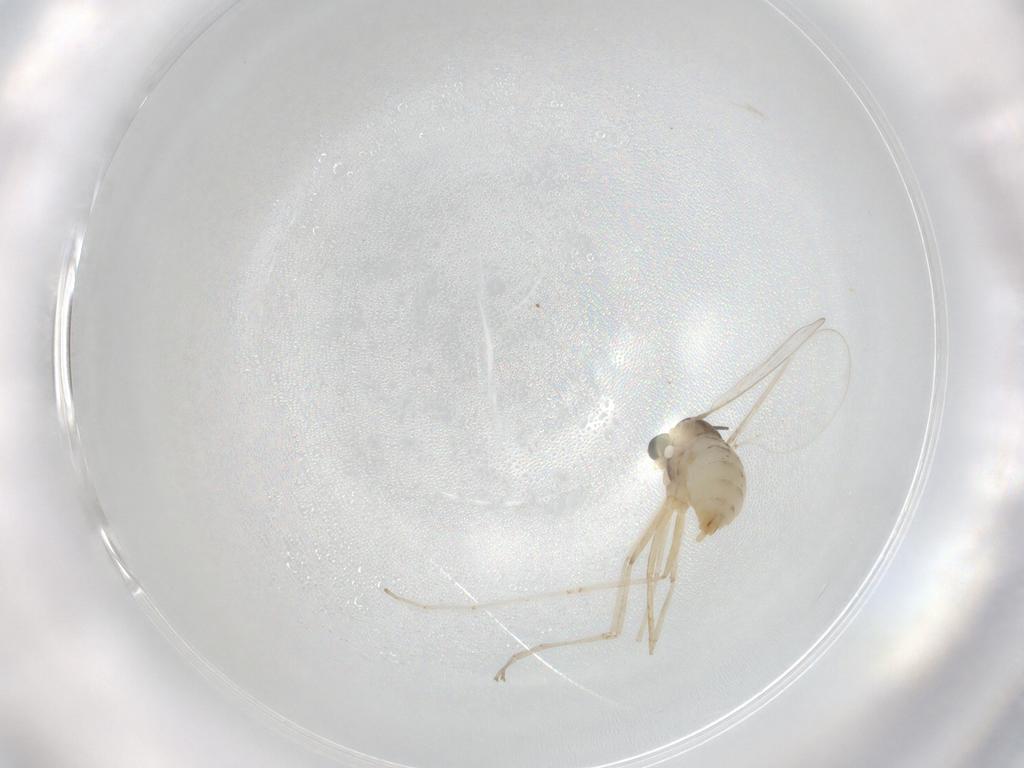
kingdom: Animalia
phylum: Arthropoda
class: Insecta
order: Diptera
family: Cecidomyiidae
